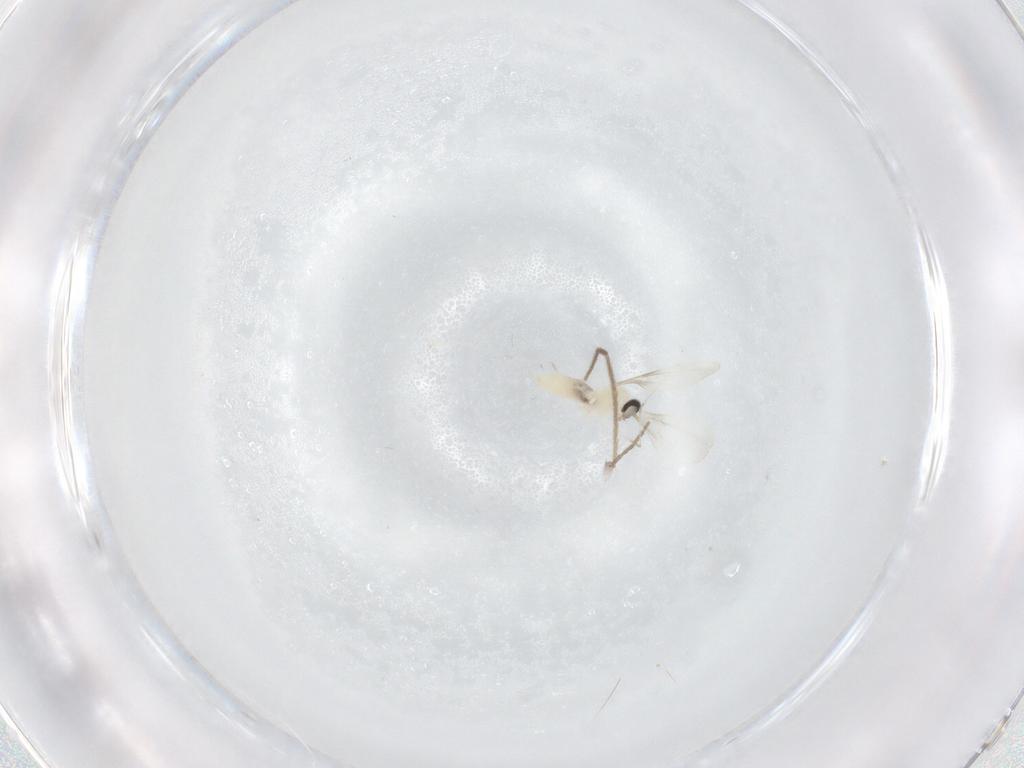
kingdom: Animalia
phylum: Arthropoda
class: Insecta
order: Diptera
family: Cecidomyiidae
